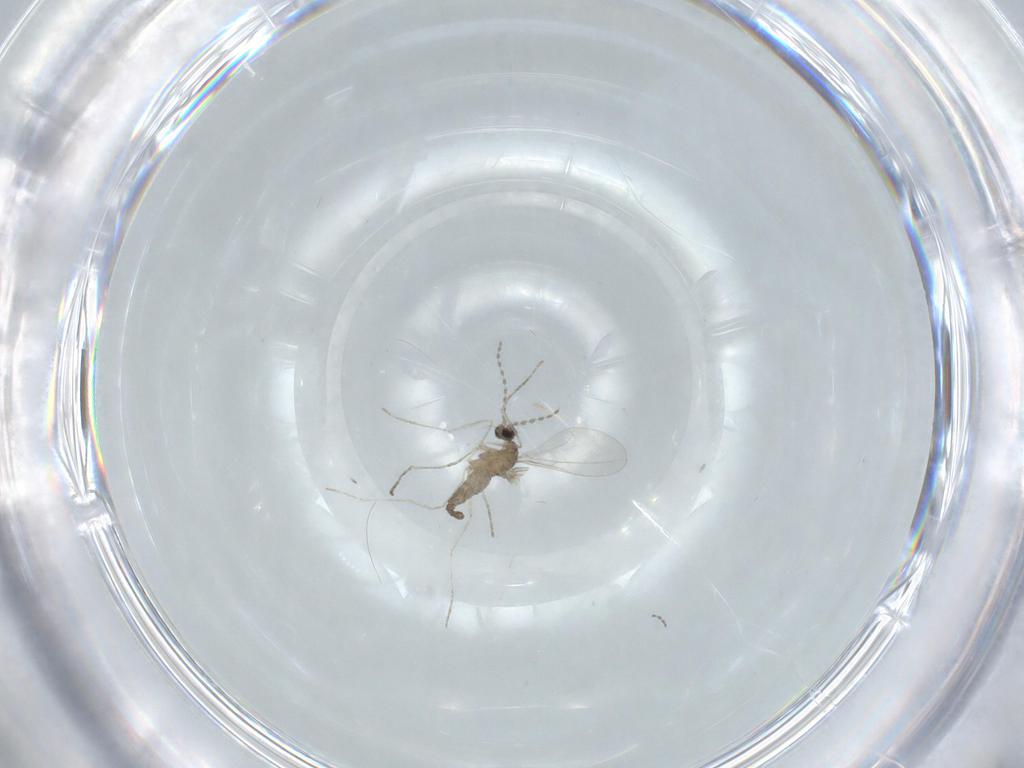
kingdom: Animalia
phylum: Arthropoda
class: Insecta
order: Diptera
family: Cecidomyiidae
